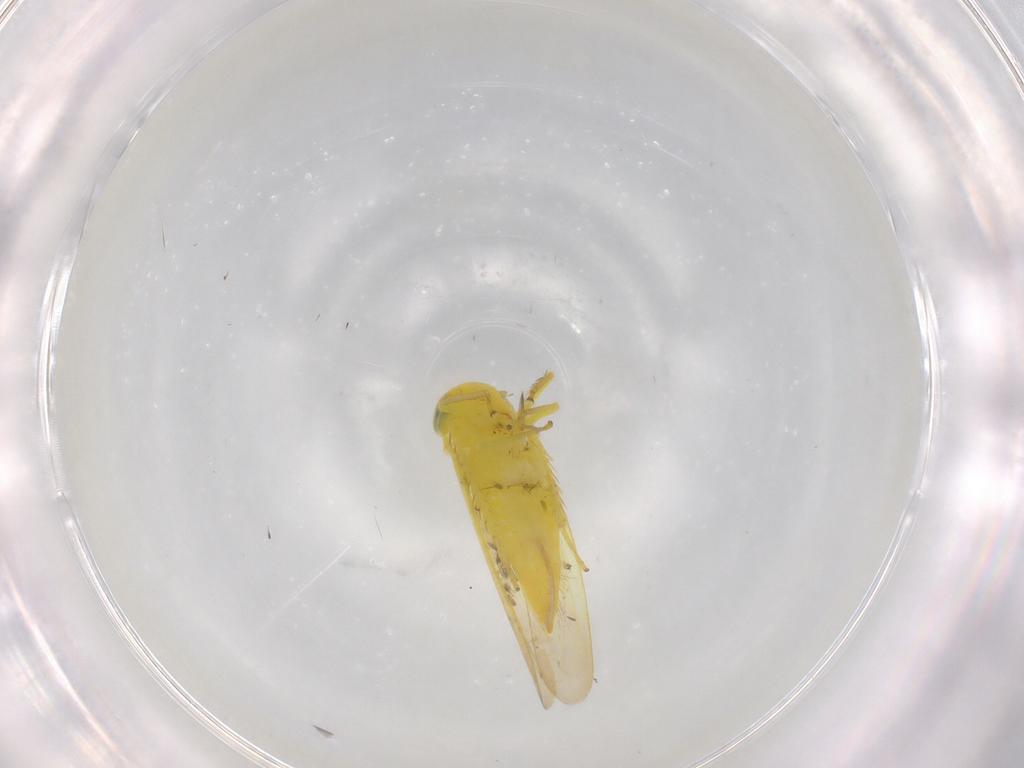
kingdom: Animalia
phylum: Arthropoda
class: Insecta
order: Hemiptera
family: Cicadellidae
